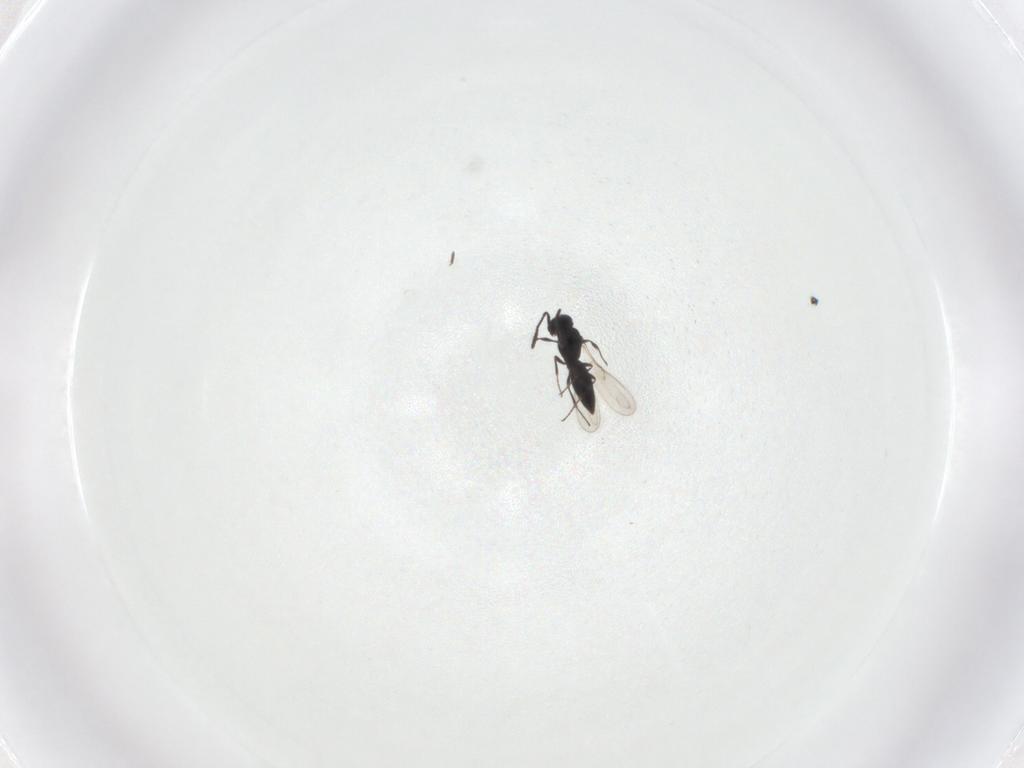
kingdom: Animalia
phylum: Arthropoda
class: Insecta
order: Hymenoptera
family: Scelionidae
